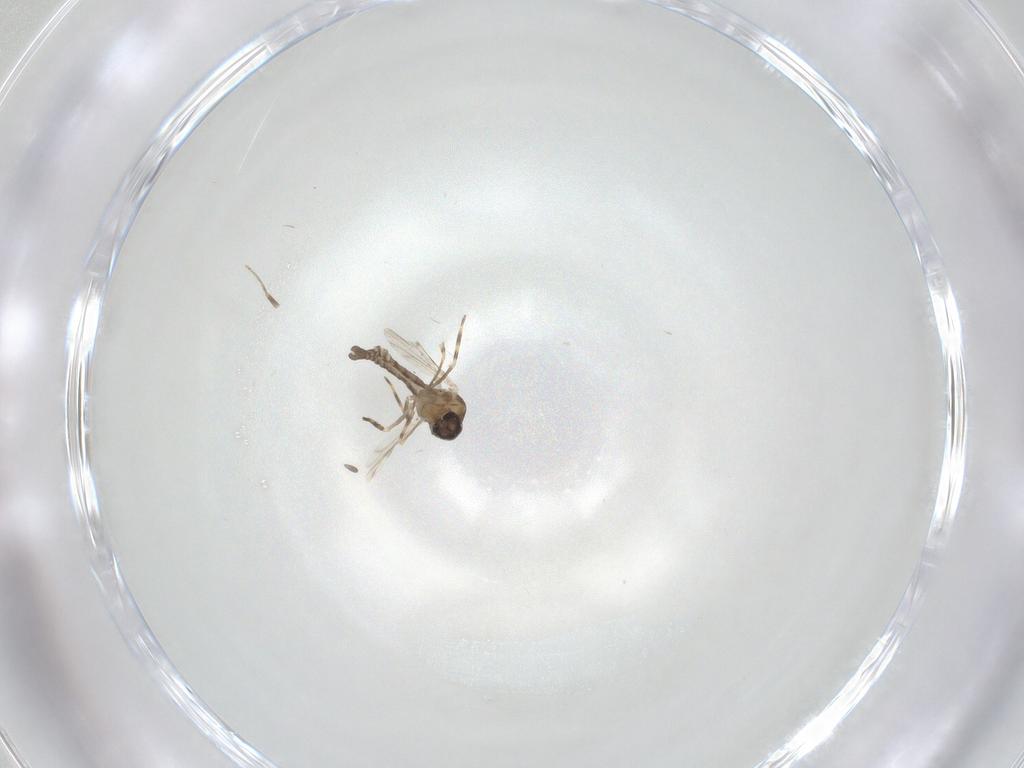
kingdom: Animalia
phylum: Arthropoda
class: Insecta
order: Diptera
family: Ceratopogonidae
